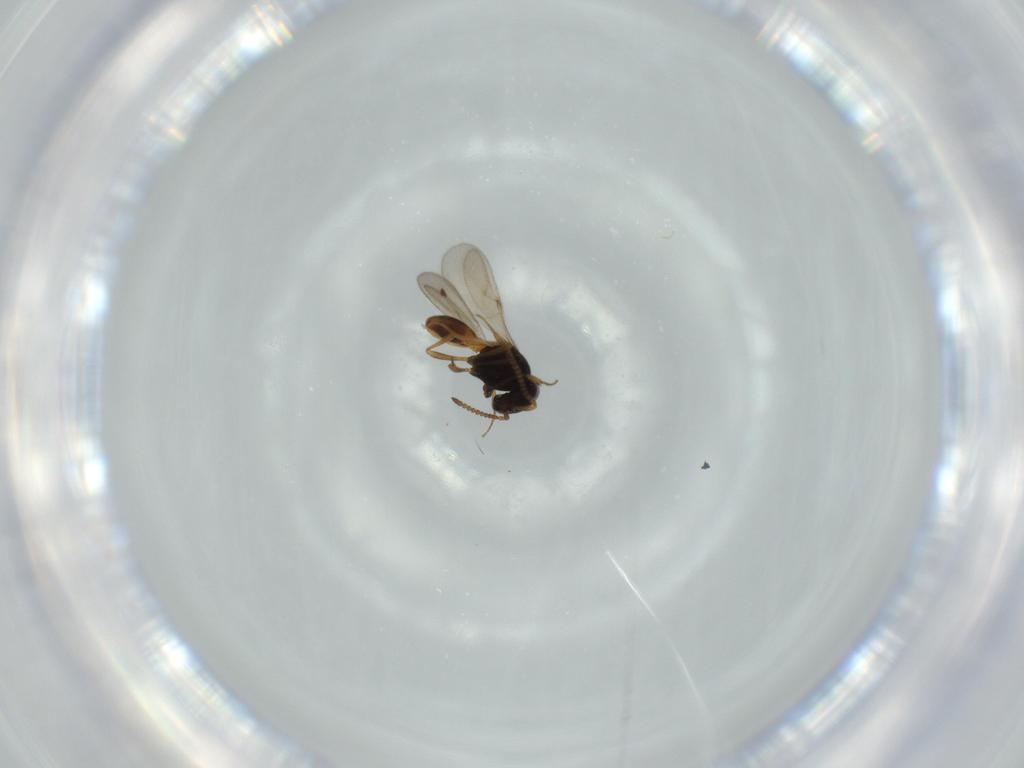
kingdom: Animalia
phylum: Arthropoda
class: Insecta
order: Hymenoptera
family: Scelionidae
